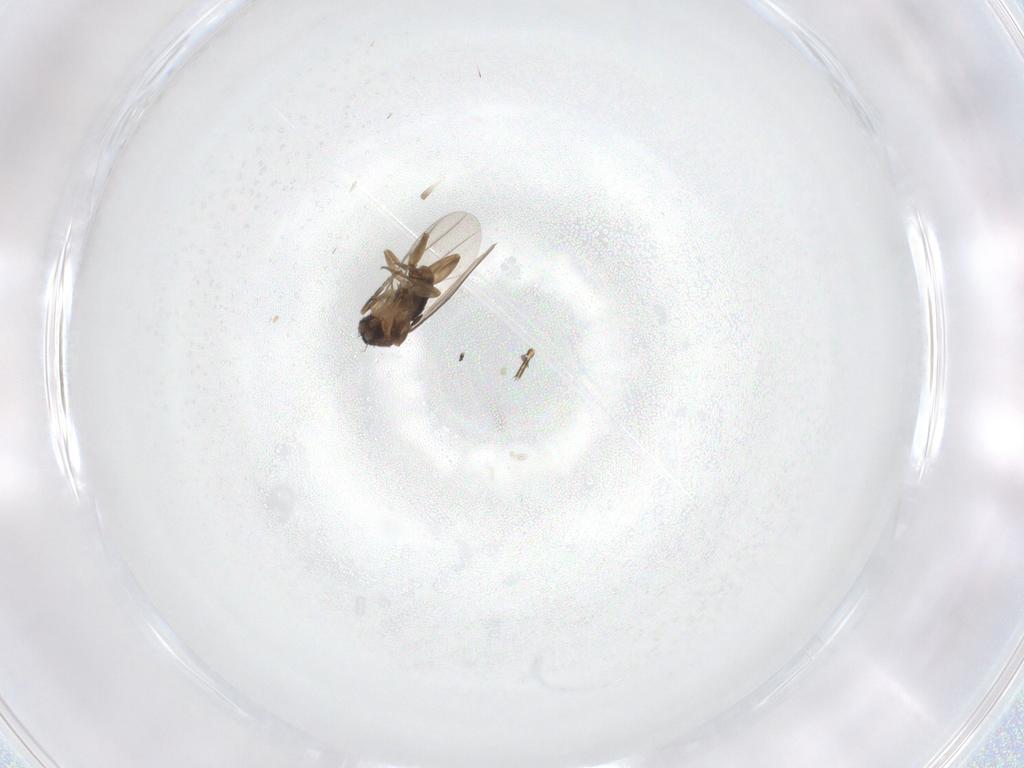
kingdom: Animalia
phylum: Arthropoda
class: Insecta
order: Diptera
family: Phoridae
